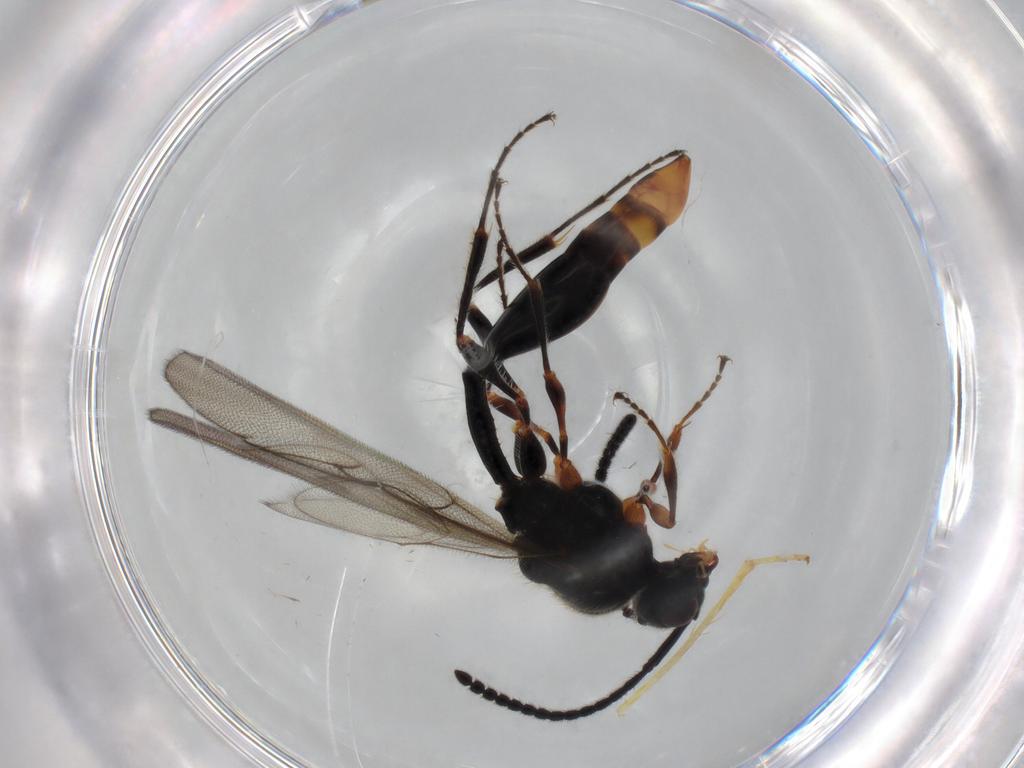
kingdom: Animalia
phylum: Arthropoda
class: Insecta
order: Hymenoptera
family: Diapriidae
